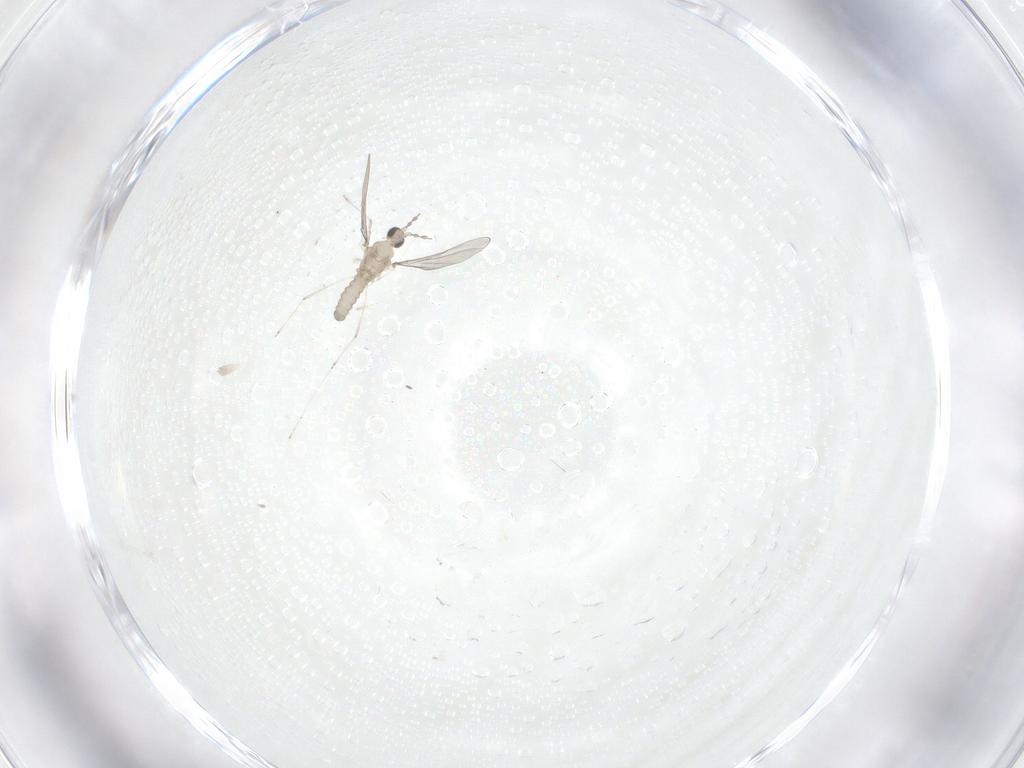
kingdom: Animalia
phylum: Arthropoda
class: Insecta
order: Diptera
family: Cecidomyiidae
